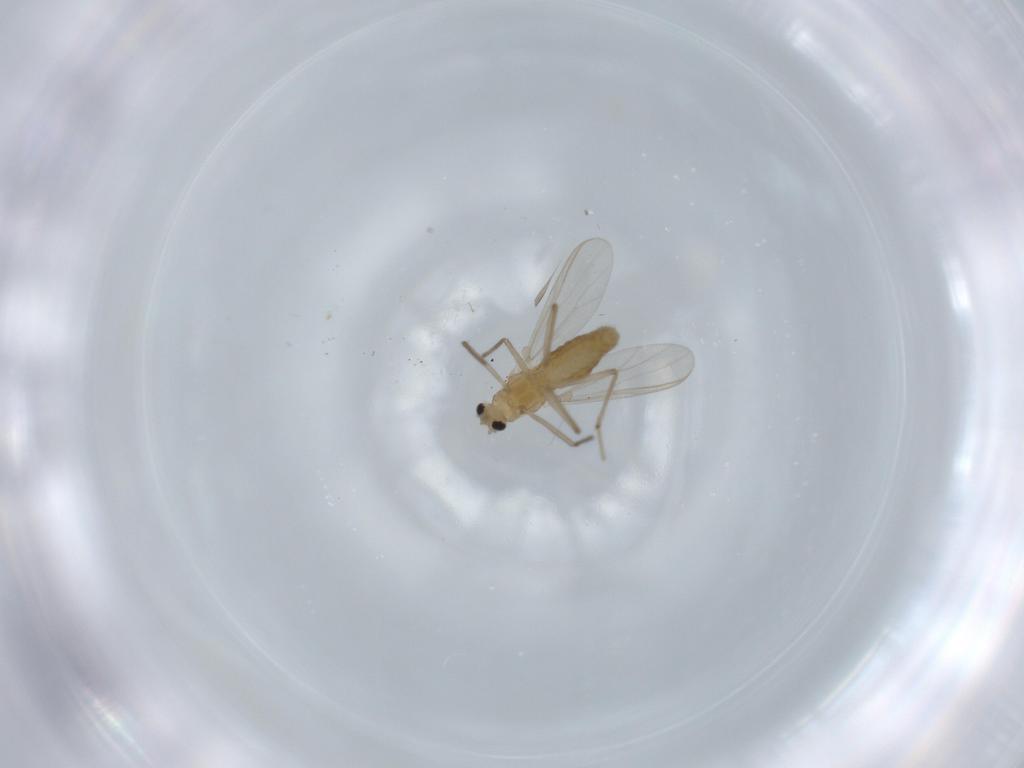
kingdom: Animalia
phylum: Arthropoda
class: Insecta
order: Diptera
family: Chironomidae
